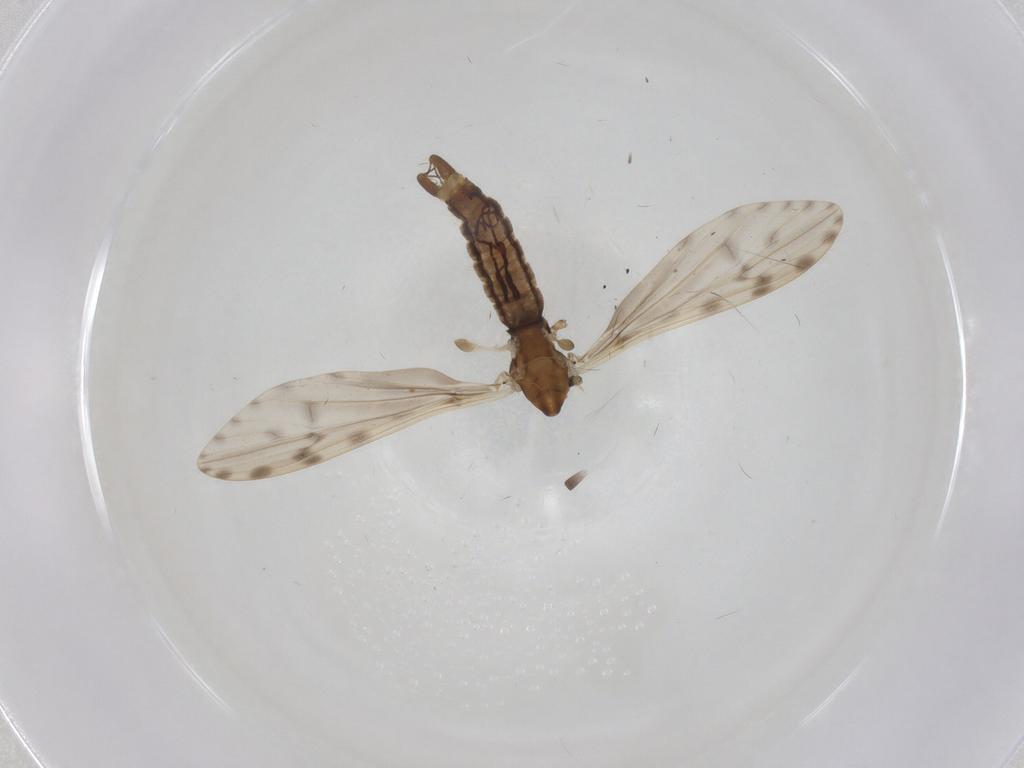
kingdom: Animalia
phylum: Arthropoda
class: Insecta
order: Diptera
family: Limoniidae
